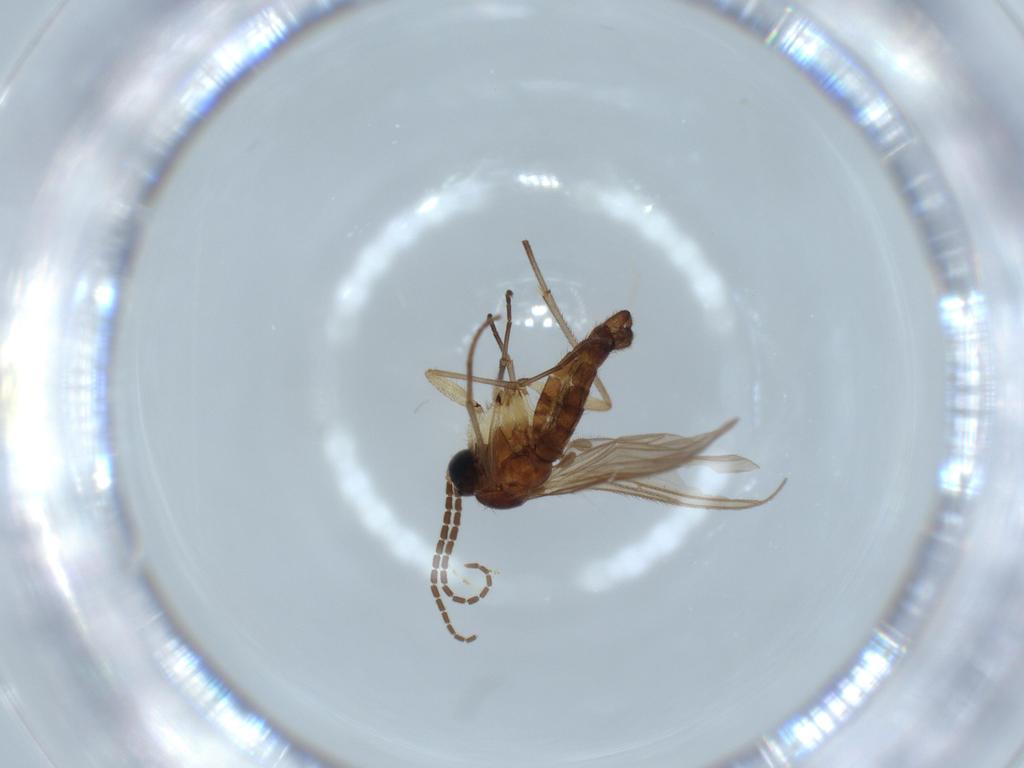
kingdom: Animalia
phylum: Arthropoda
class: Insecta
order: Diptera
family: Sciaridae
